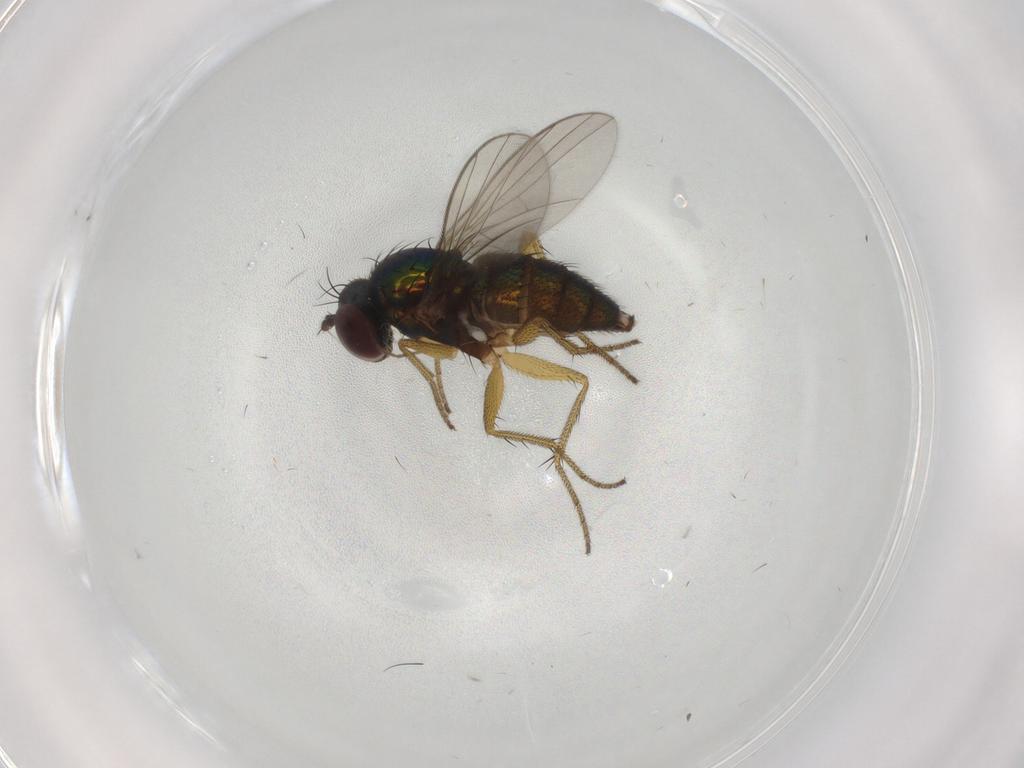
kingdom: Animalia
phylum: Arthropoda
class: Insecta
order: Diptera
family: Dolichopodidae
